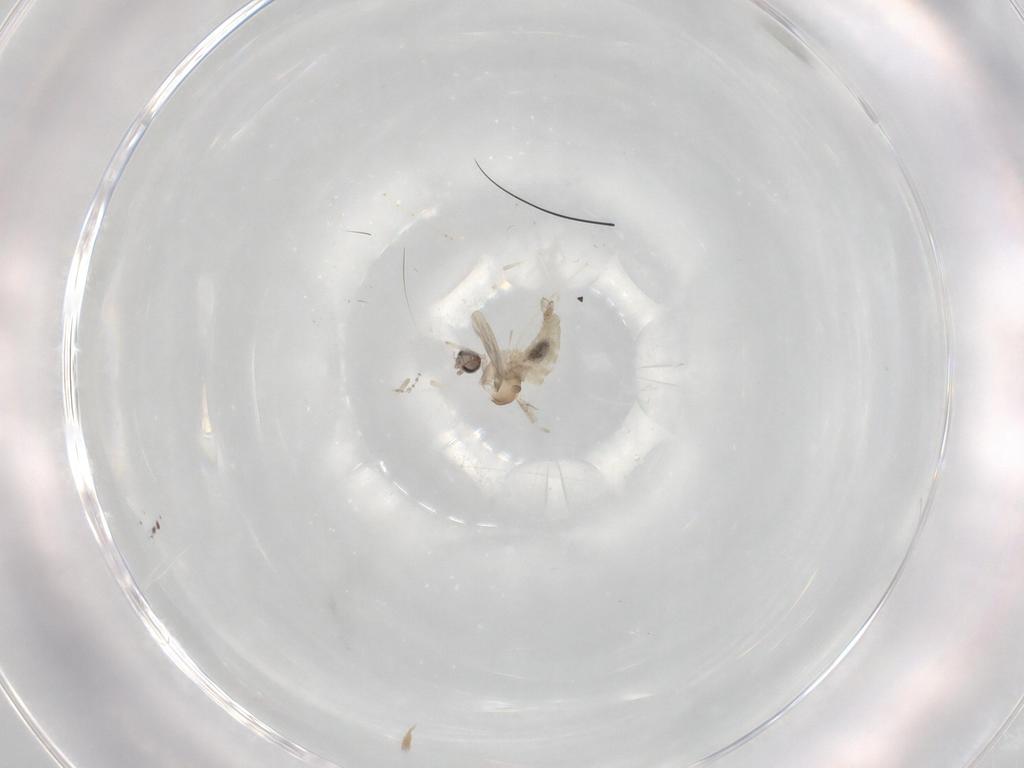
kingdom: Animalia
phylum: Arthropoda
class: Insecta
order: Diptera
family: Cecidomyiidae
